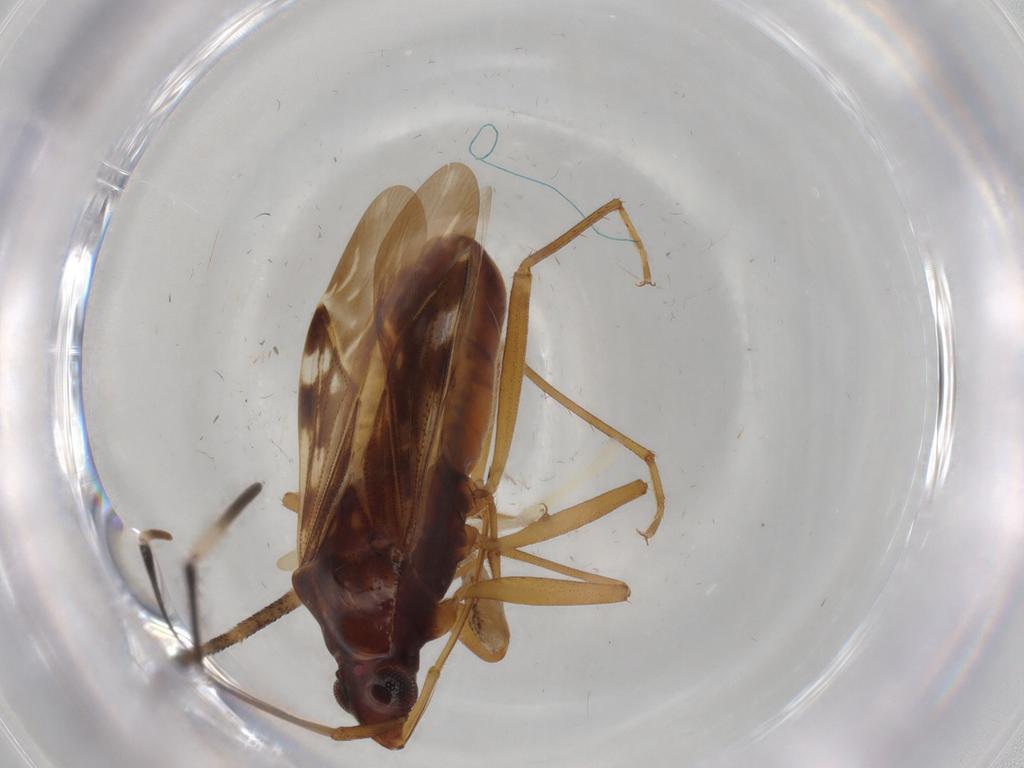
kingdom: Animalia
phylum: Arthropoda
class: Insecta
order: Hemiptera
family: Rhyparochromidae
